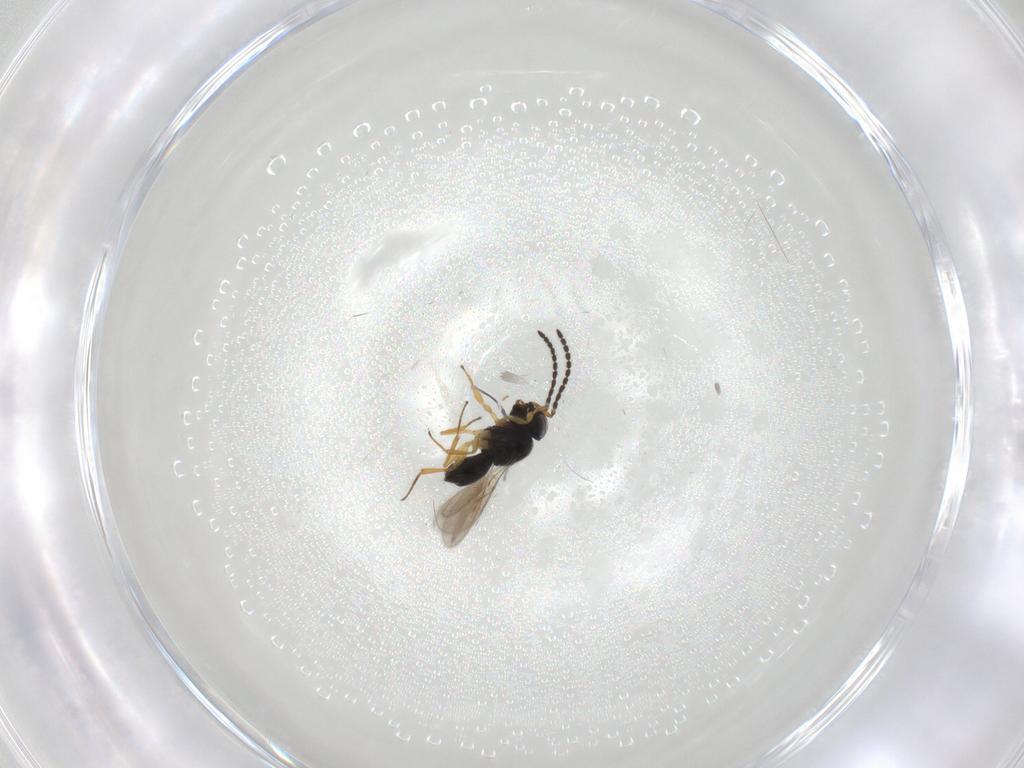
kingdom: Animalia
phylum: Arthropoda
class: Insecta
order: Hymenoptera
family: Scelionidae
